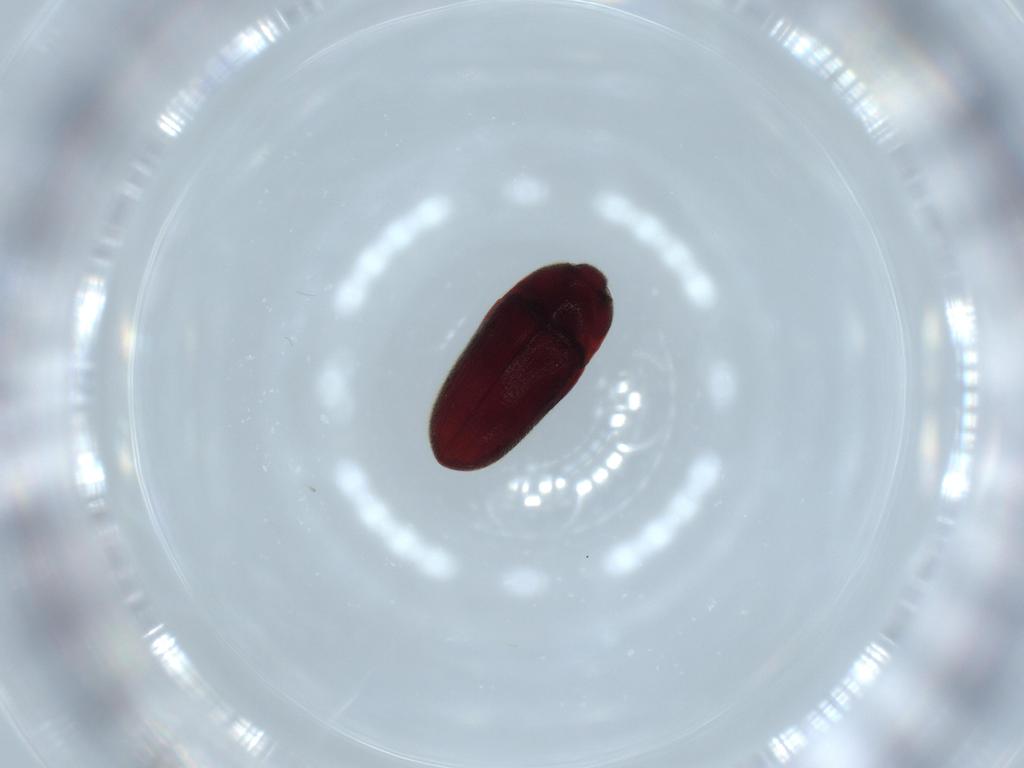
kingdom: Animalia
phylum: Arthropoda
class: Insecta
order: Coleoptera
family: Throscidae
